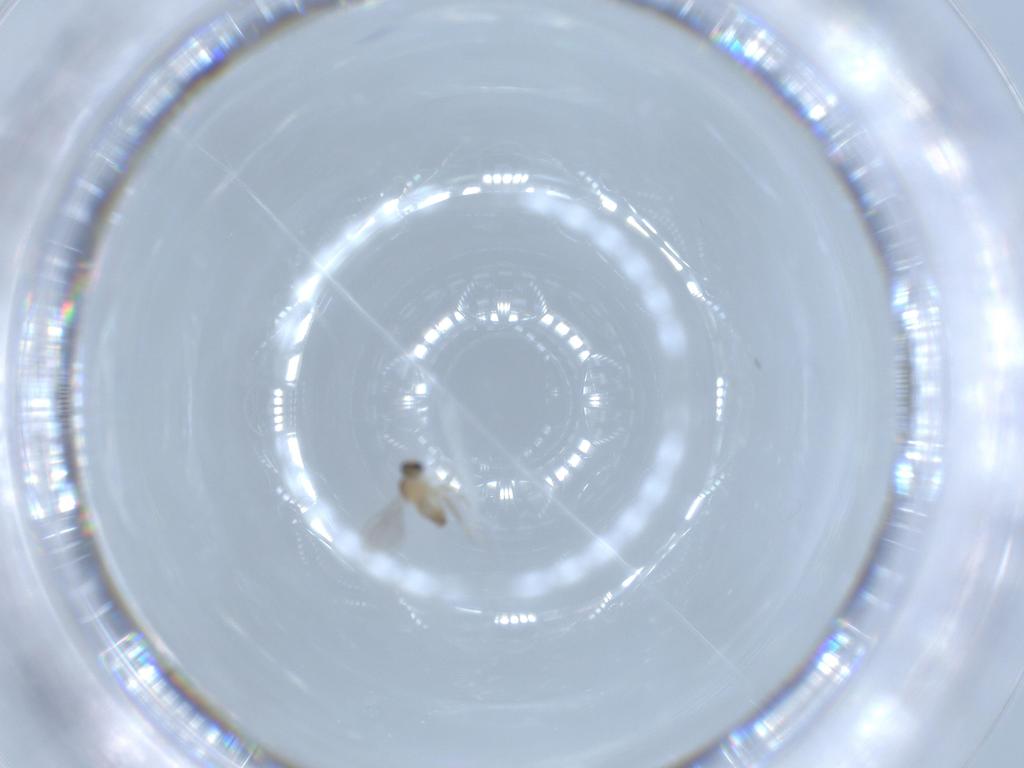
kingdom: Animalia
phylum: Arthropoda
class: Insecta
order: Diptera
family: Cecidomyiidae
